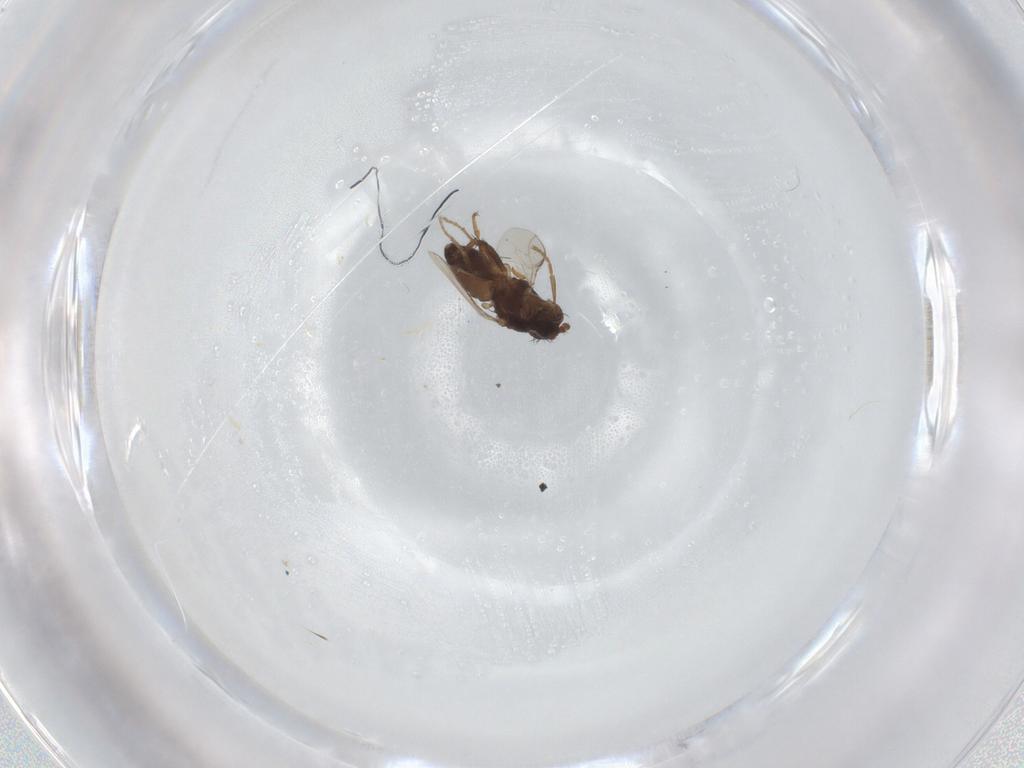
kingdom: Animalia
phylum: Arthropoda
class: Insecta
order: Diptera
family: Sphaeroceridae
